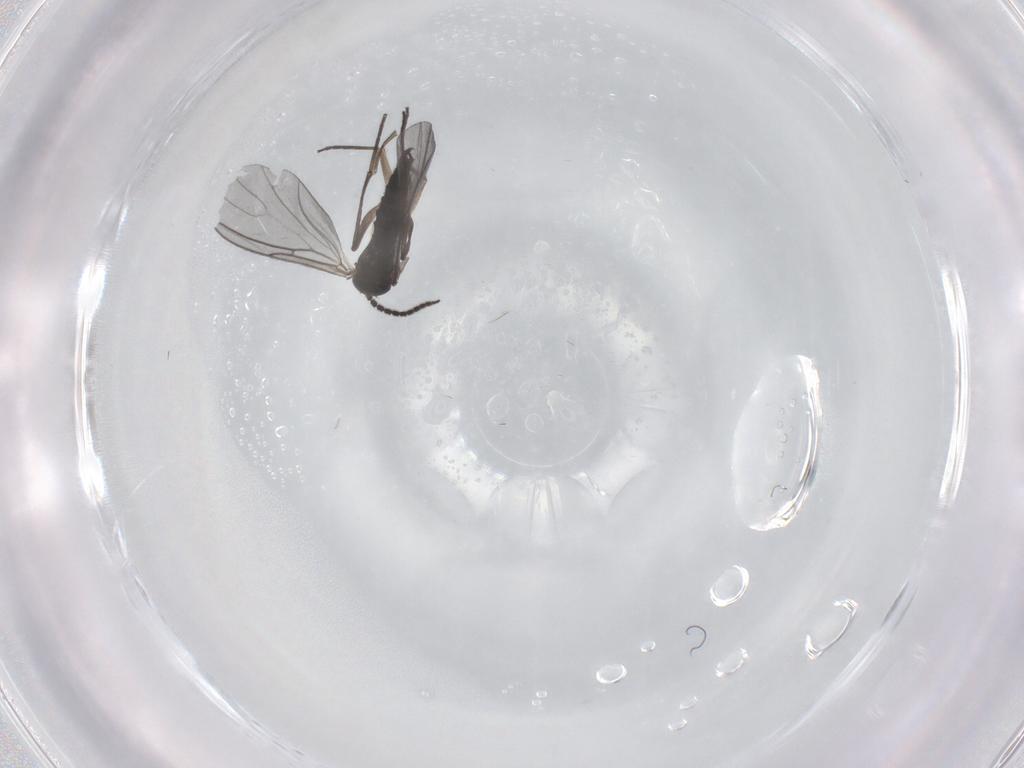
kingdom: Animalia
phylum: Arthropoda
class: Insecta
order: Diptera
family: Sciaridae
